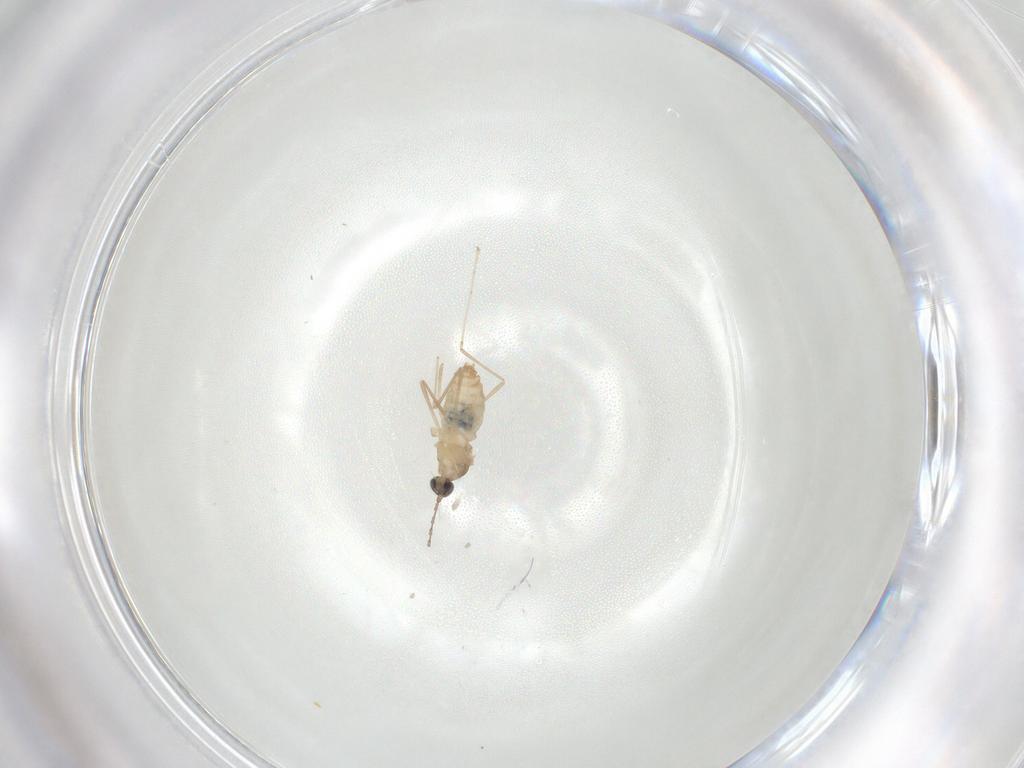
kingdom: Animalia
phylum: Arthropoda
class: Insecta
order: Diptera
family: Cecidomyiidae
